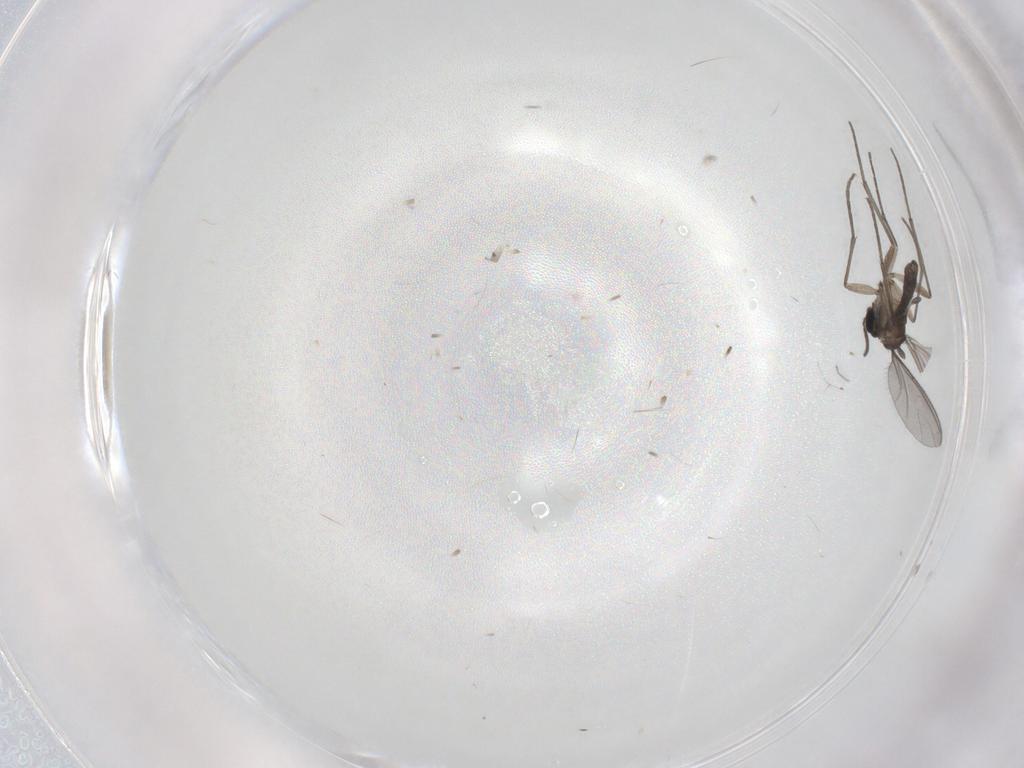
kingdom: Animalia
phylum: Arthropoda
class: Insecta
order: Diptera
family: Sciaridae
